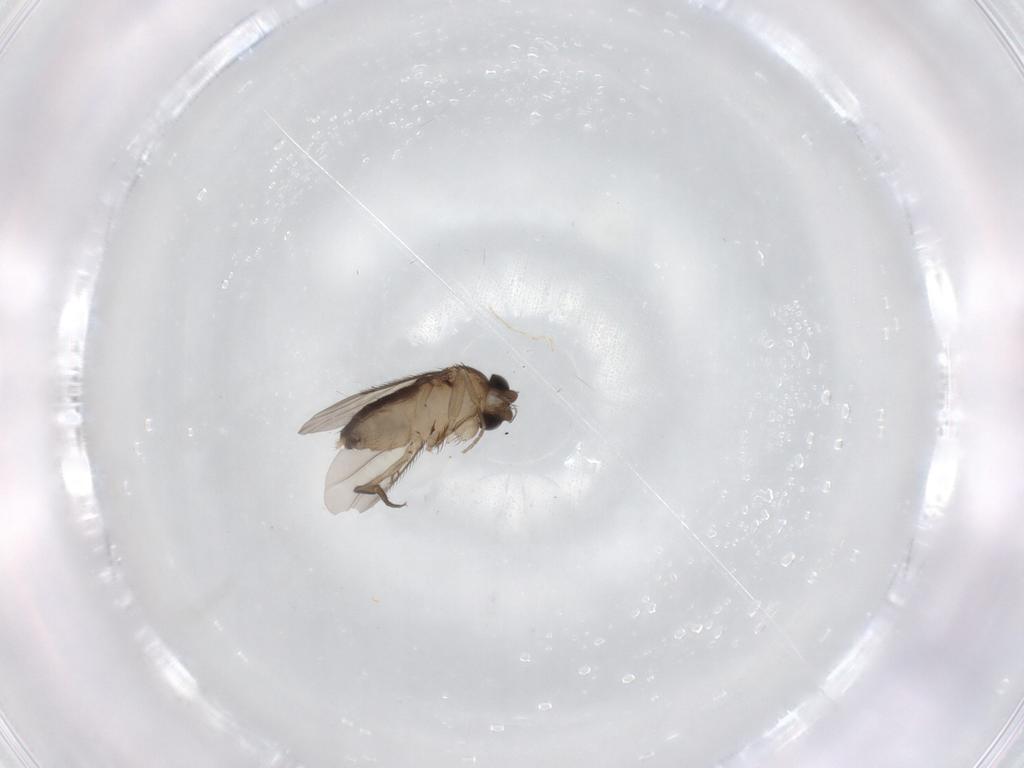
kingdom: Animalia
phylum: Arthropoda
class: Insecta
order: Diptera
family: Phoridae
